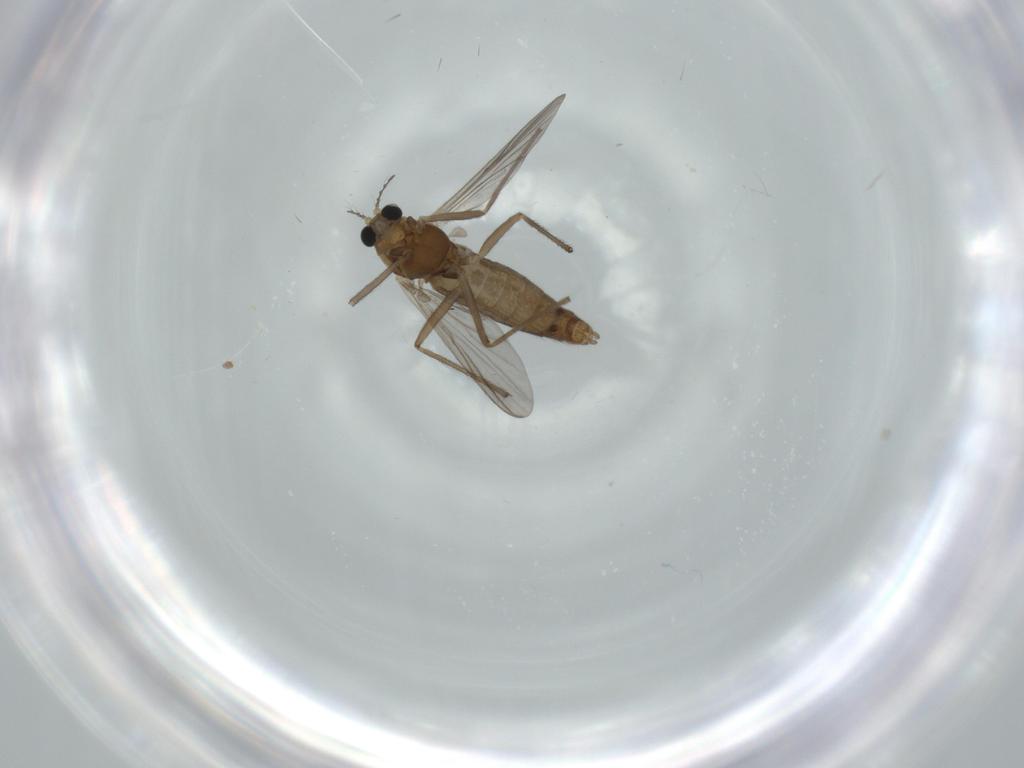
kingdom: Animalia
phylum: Arthropoda
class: Insecta
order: Diptera
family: Chironomidae
